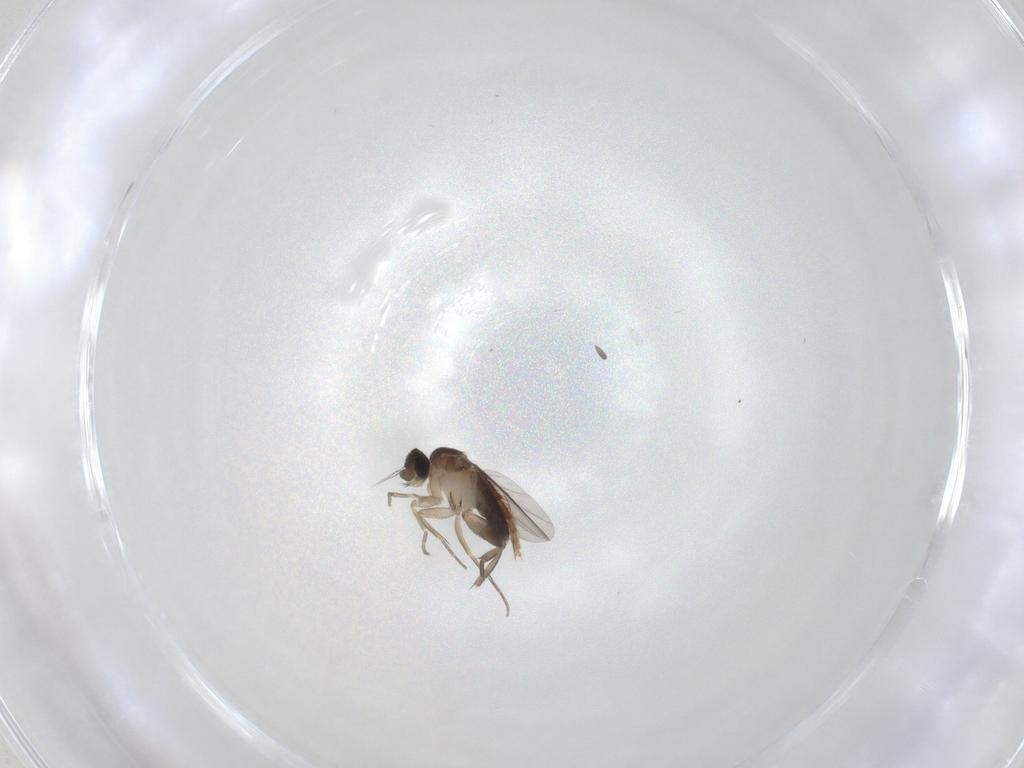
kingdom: Animalia
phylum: Arthropoda
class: Insecta
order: Diptera
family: Phoridae
